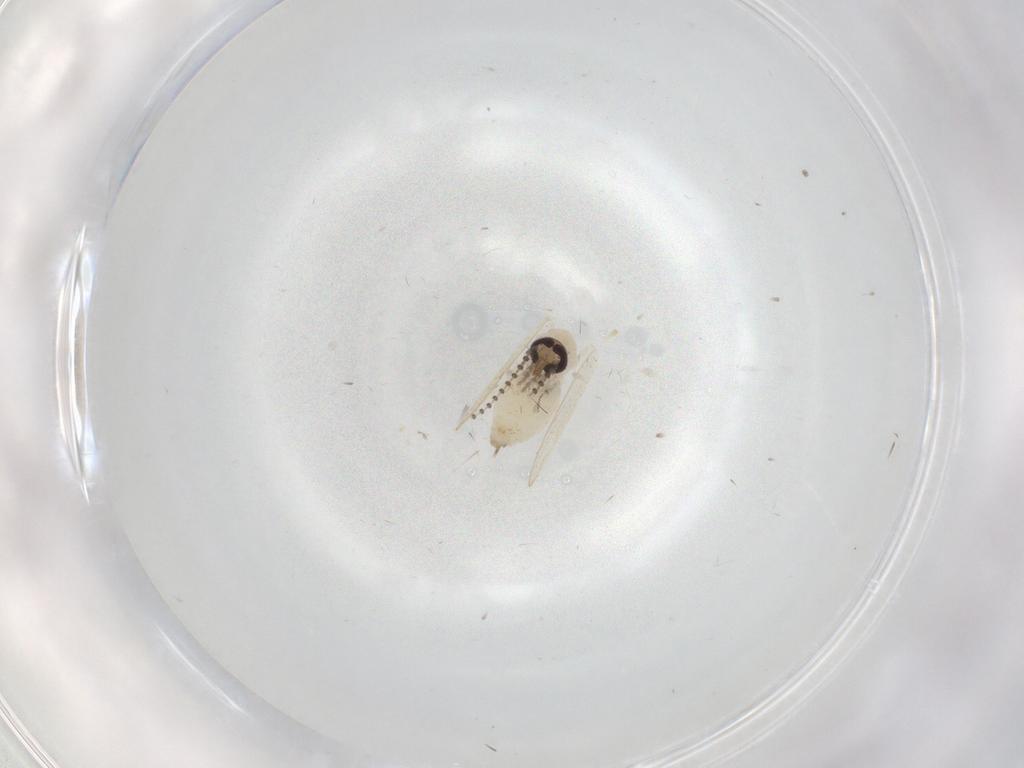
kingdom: Animalia
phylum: Arthropoda
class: Insecta
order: Diptera
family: Psychodidae
